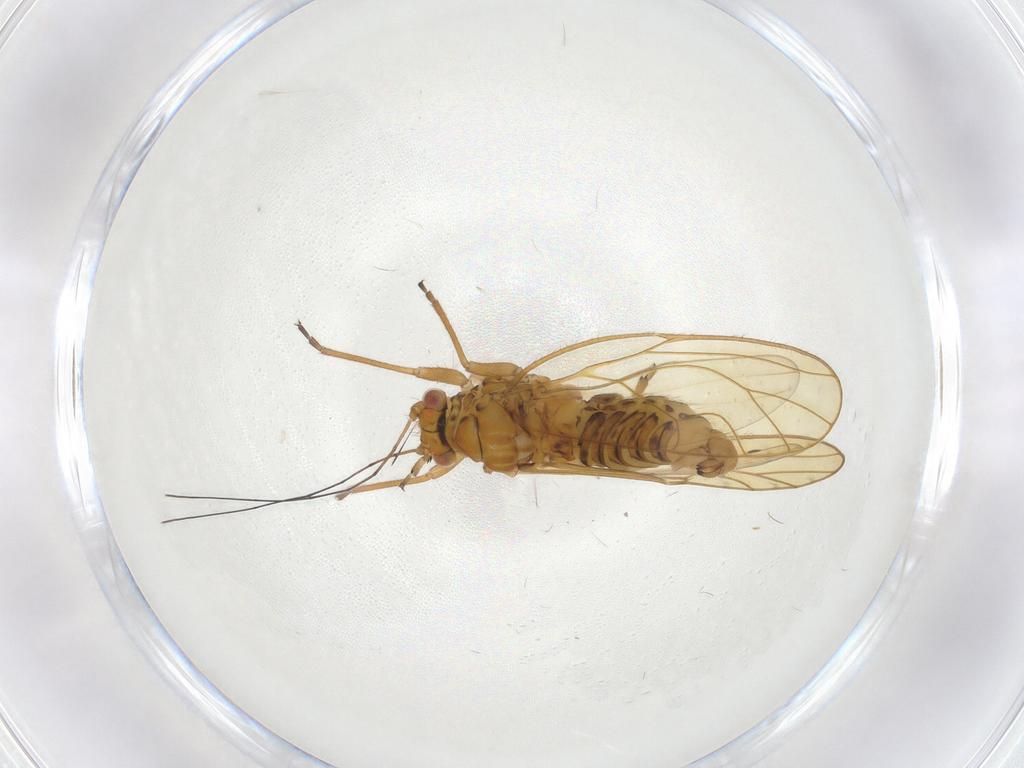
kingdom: Animalia
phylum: Arthropoda
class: Insecta
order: Hemiptera
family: Psyllidae
